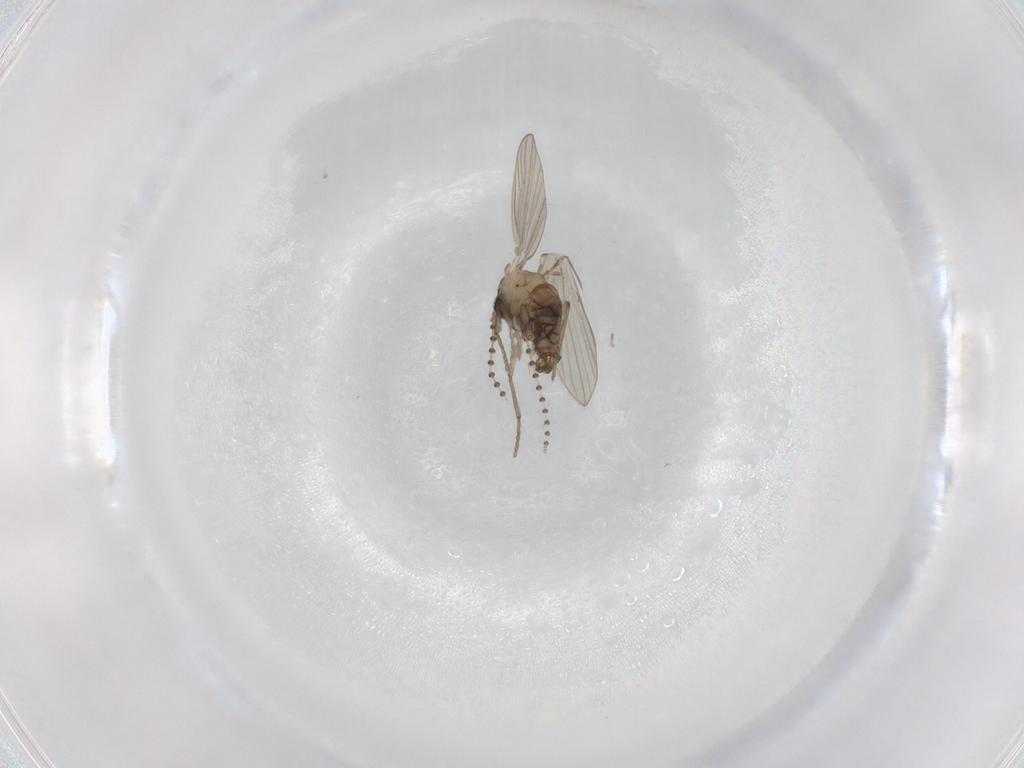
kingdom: Animalia
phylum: Arthropoda
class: Insecta
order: Diptera
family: Psychodidae
